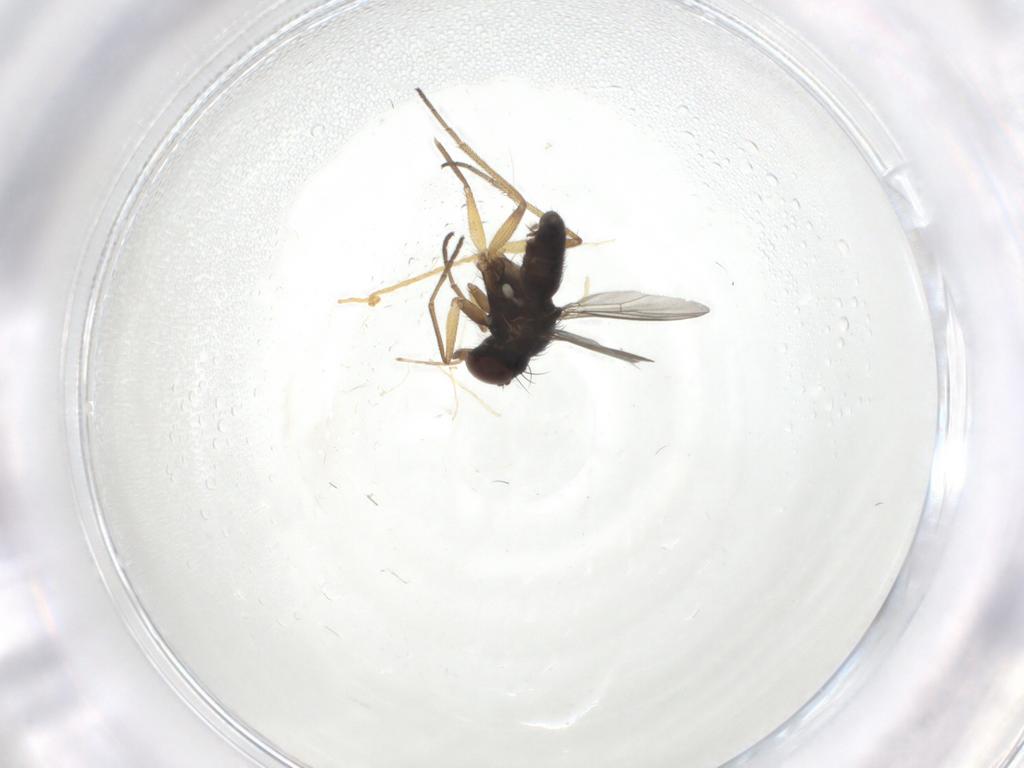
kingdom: Animalia
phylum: Arthropoda
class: Insecta
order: Diptera
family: Dolichopodidae
